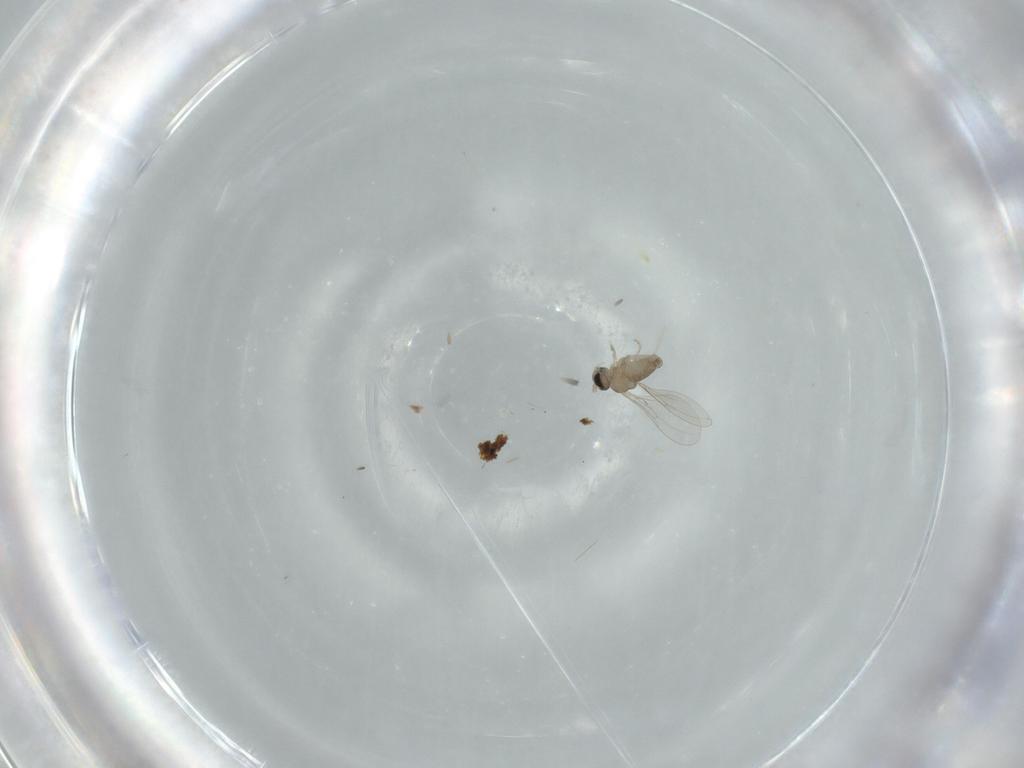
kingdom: Animalia
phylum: Arthropoda
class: Insecta
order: Diptera
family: Cecidomyiidae
